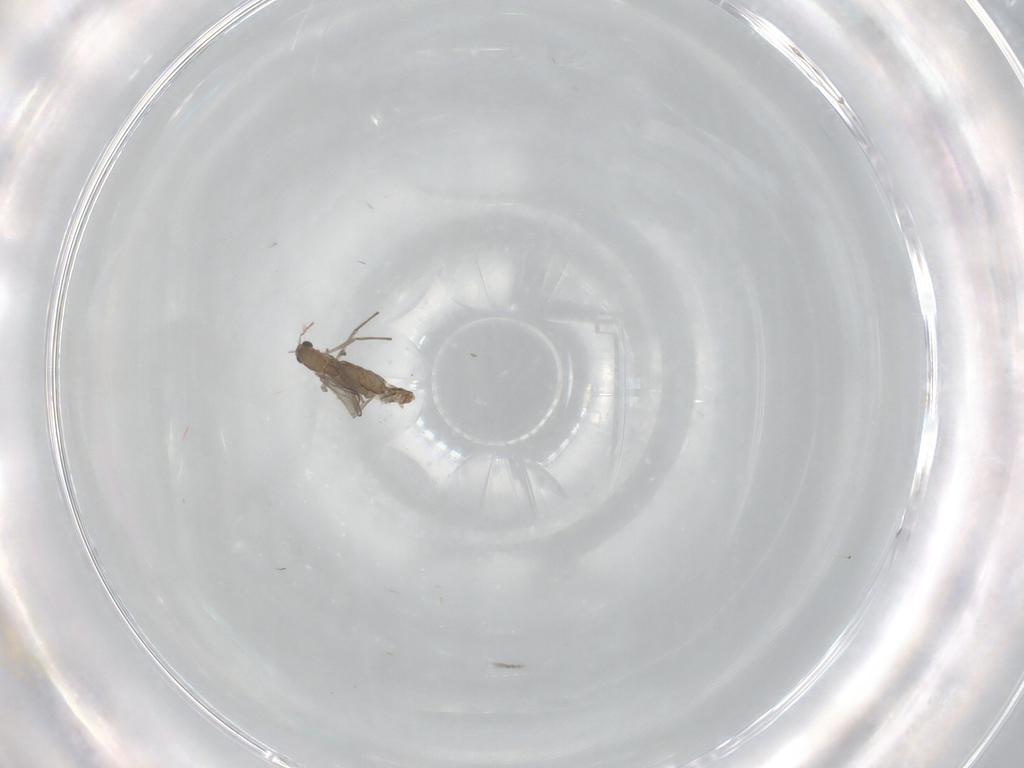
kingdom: Animalia
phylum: Arthropoda
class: Insecta
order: Diptera
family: Chironomidae
